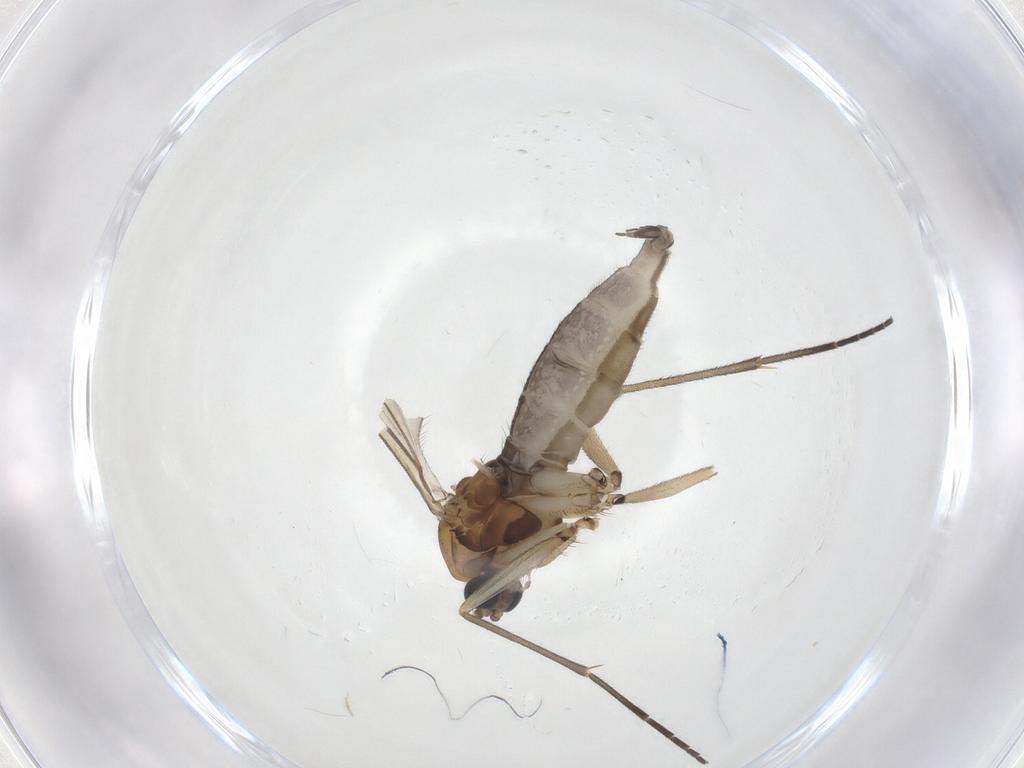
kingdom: Animalia
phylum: Arthropoda
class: Insecta
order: Diptera
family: Sciaridae
